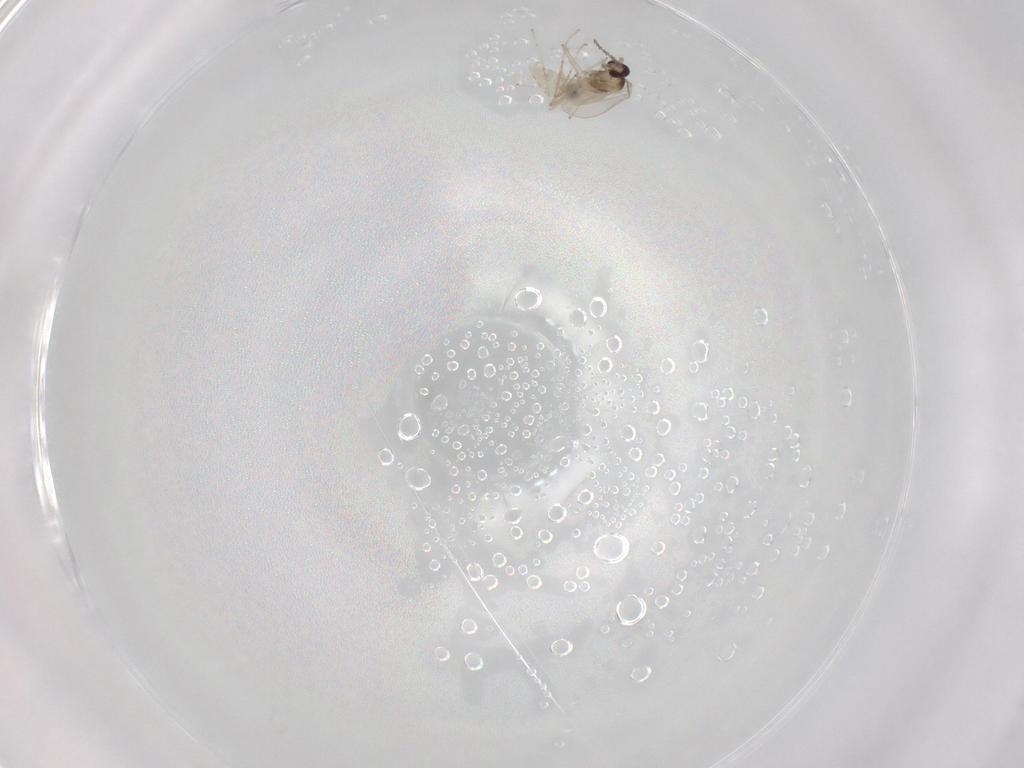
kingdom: Animalia
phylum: Arthropoda
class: Insecta
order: Diptera
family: Cecidomyiidae
